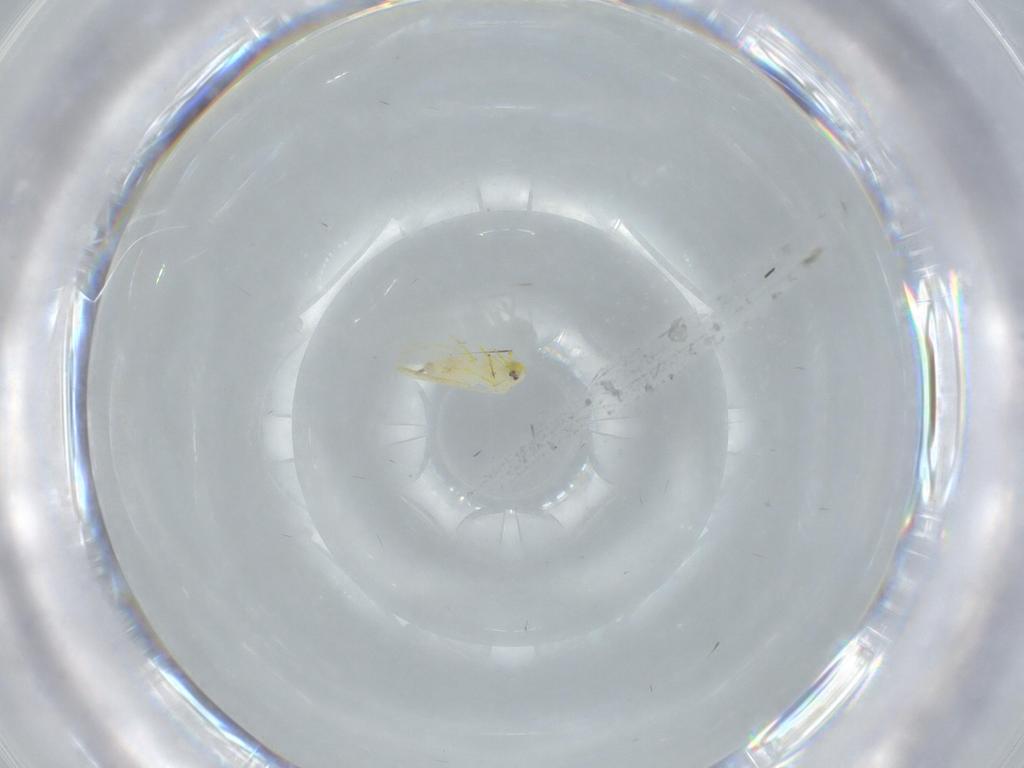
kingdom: Animalia
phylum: Arthropoda
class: Insecta
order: Hemiptera
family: Aleyrodidae
